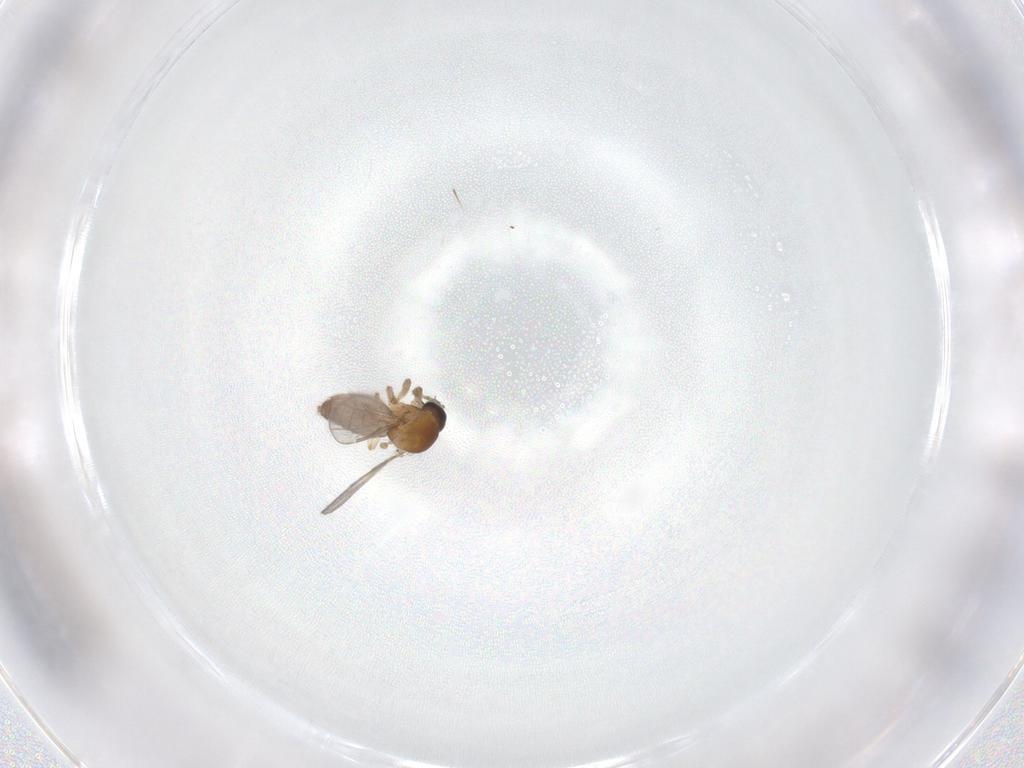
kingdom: Animalia
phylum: Arthropoda
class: Insecta
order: Diptera
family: Ceratopogonidae
